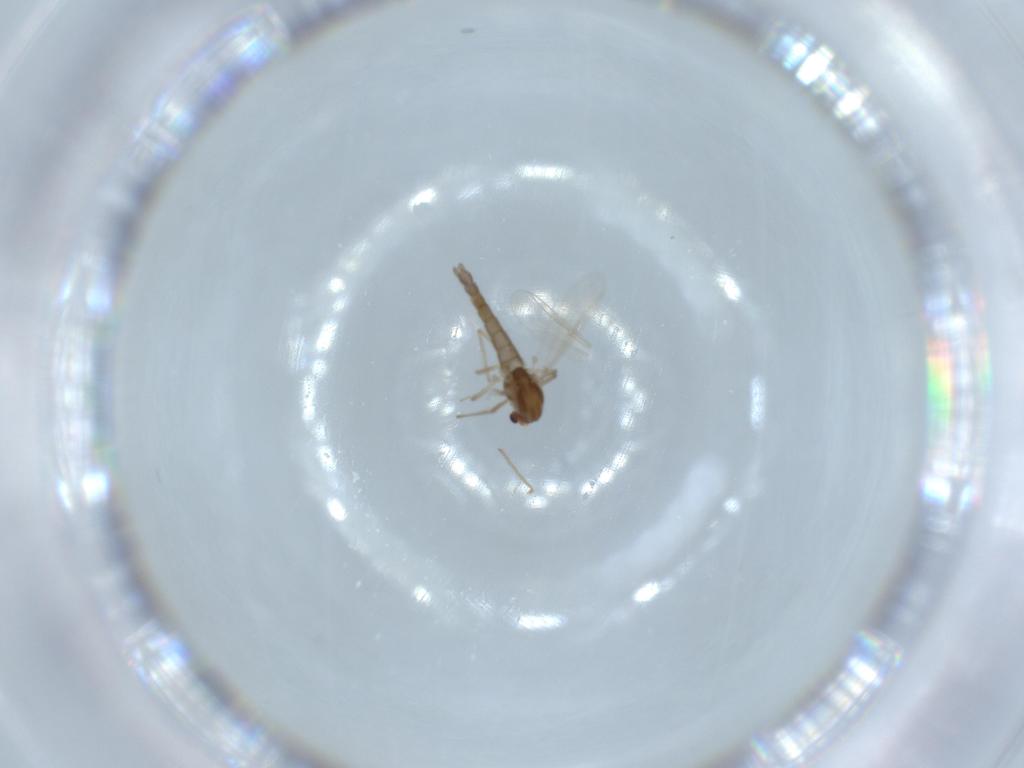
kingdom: Animalia
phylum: Arthropoda
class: Insecta
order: Diptera
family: Chironomidae
